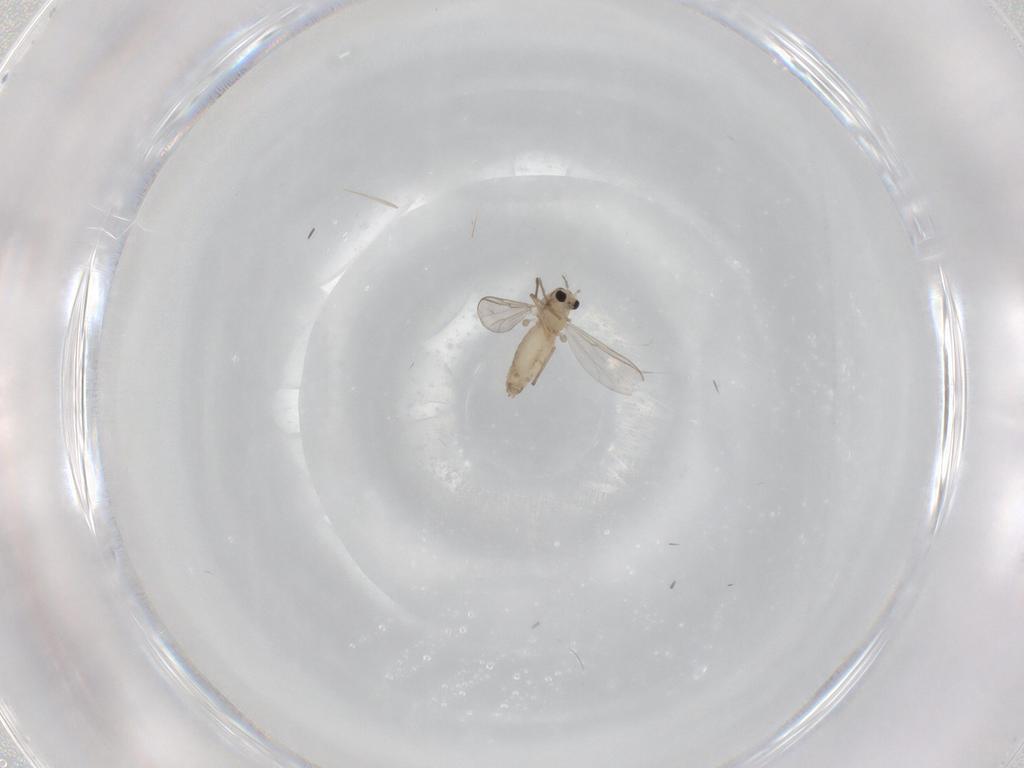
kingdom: Animalia
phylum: Arthropoda
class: Insecta
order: Diptera
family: Chironomidae
